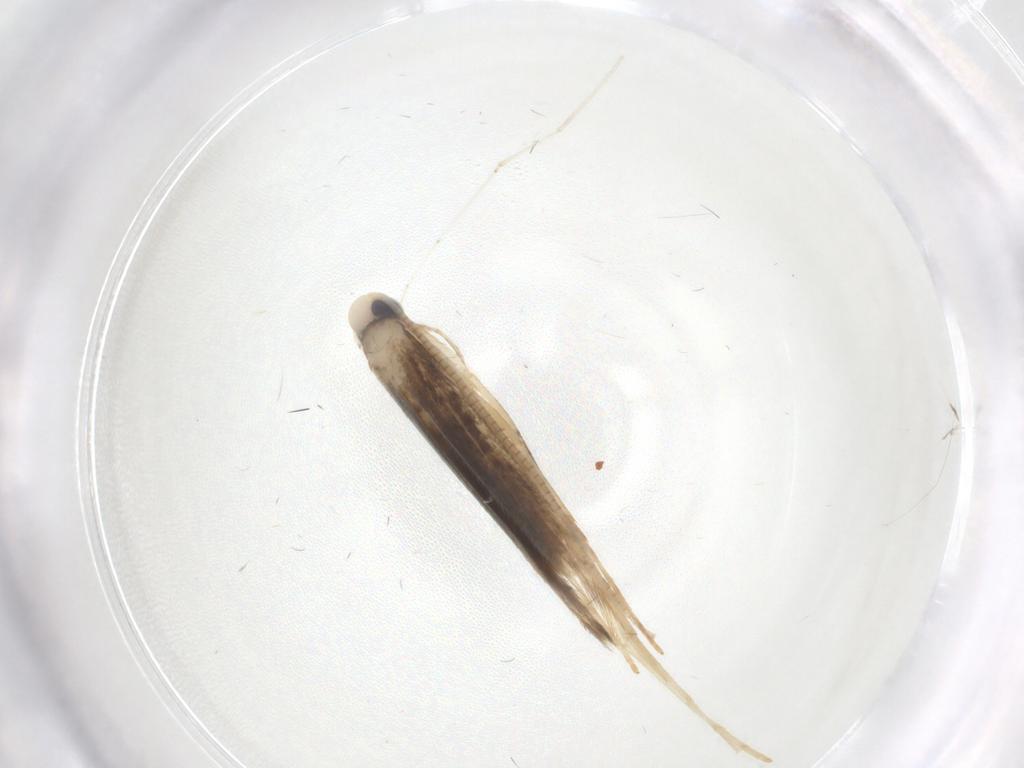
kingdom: Animalia
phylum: Arthropoda
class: Insecta
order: Lepidoptera
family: Gracillariidae
